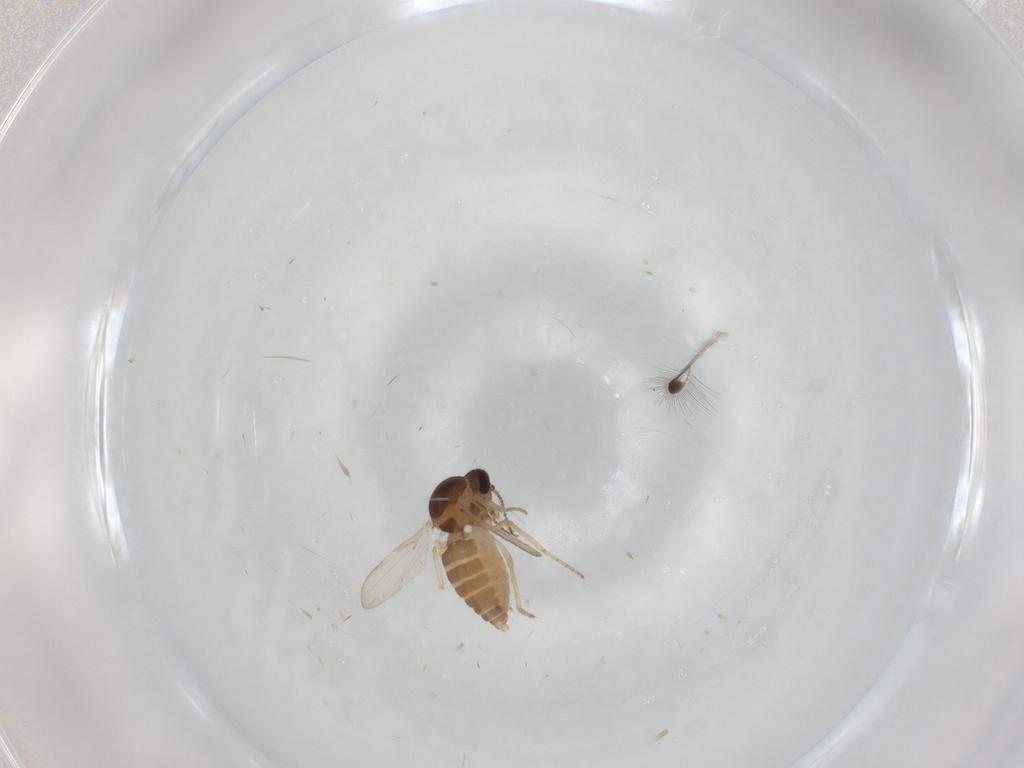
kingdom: Animalia
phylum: Arthropoda
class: Insecta
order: Diptera
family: Ceratopogonidae
